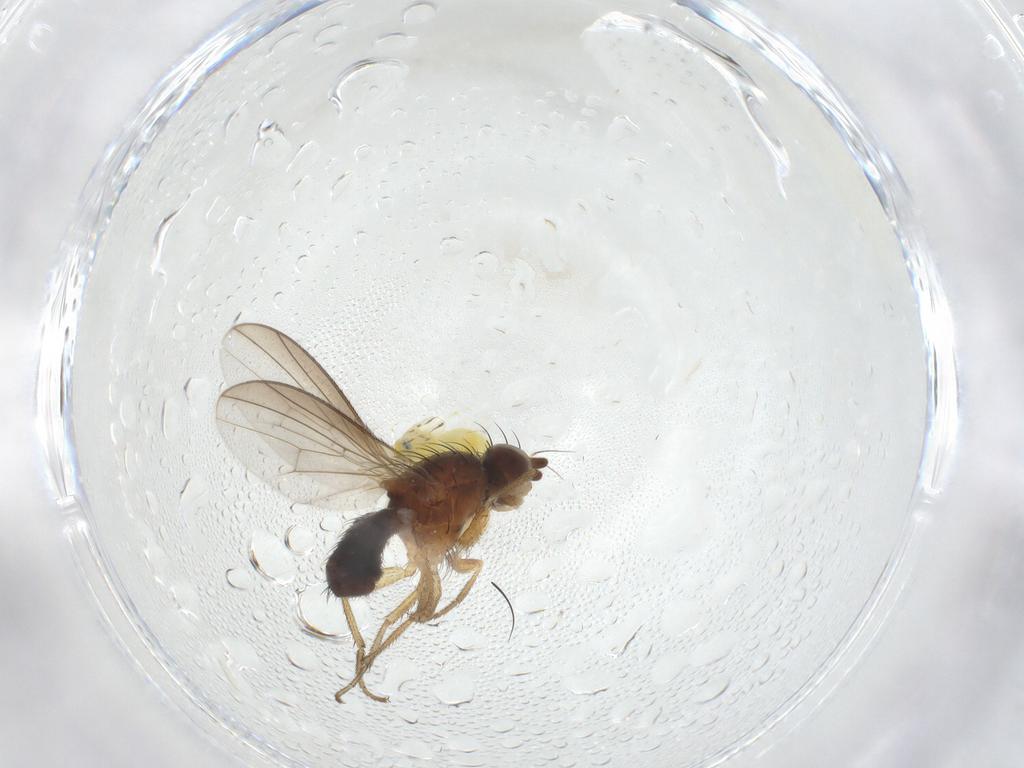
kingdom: Animalia
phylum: Arthropoda
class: Insecta
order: Hemiptera
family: Aleyrodidae
